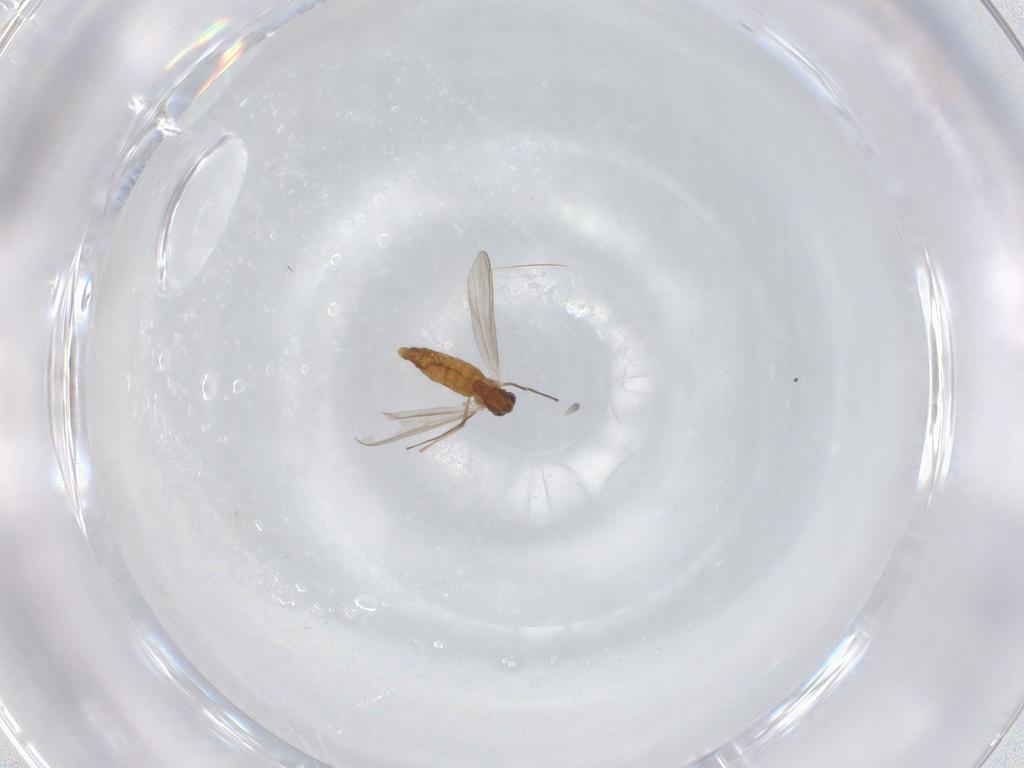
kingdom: Animalia
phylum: Arthropoda
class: Insecta
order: Diptera
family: Chironomidae
